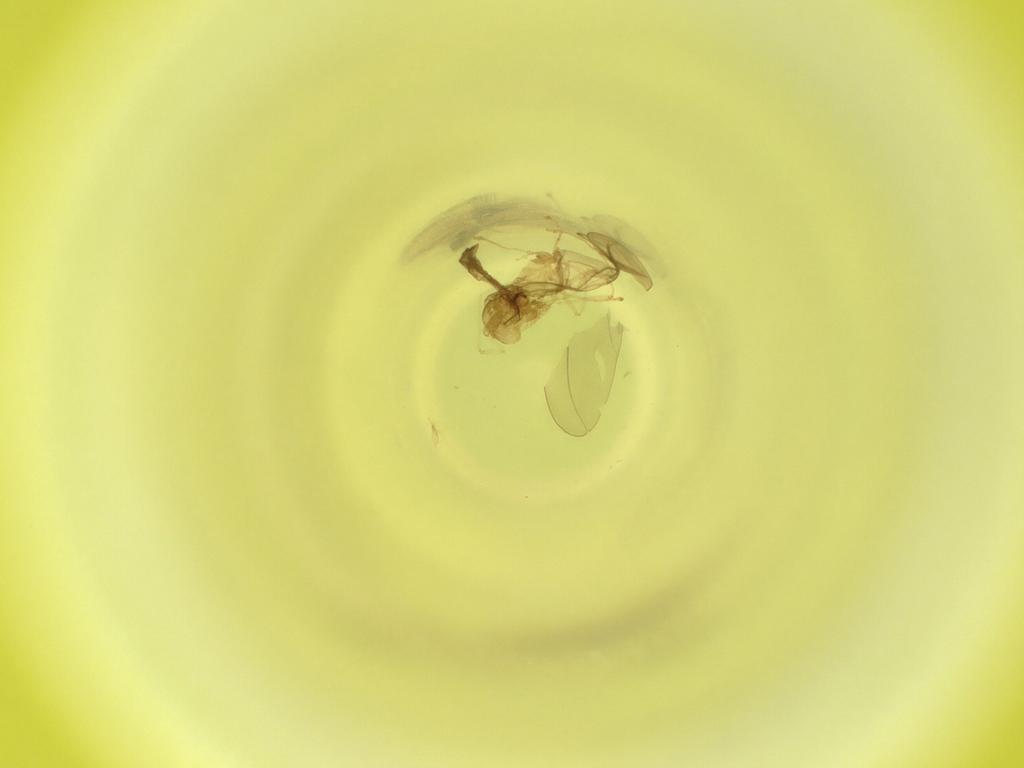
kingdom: Animalia
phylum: Arthropoda
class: Insecta
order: Diptera
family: Cecidomyiidae
